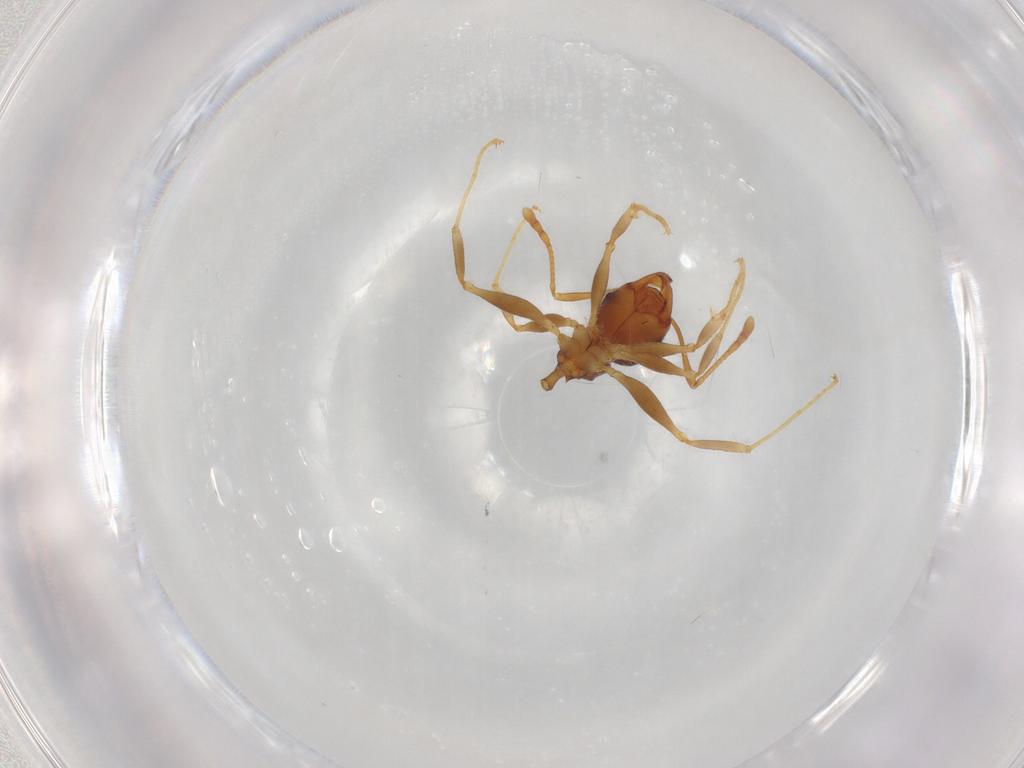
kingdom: Animalia
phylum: Arthropoda
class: Insecta
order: Hymenoptera
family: Formicidae
